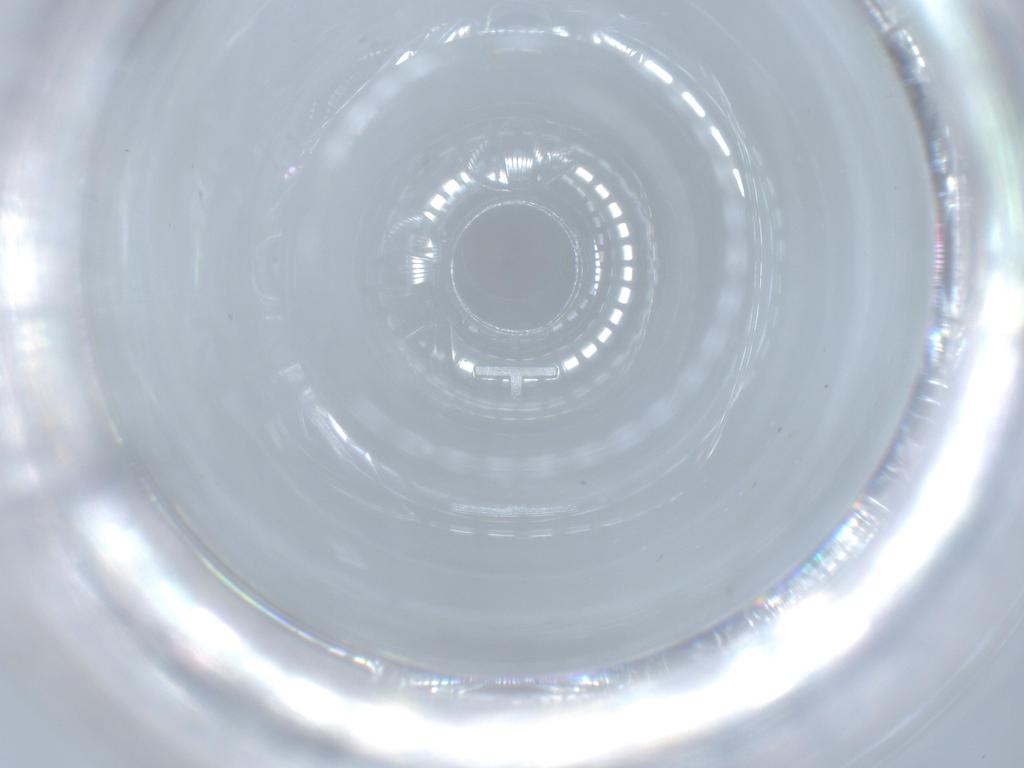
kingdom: Animalia
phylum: Arthropoda
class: Insecta
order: Diptera
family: Chironomidae
